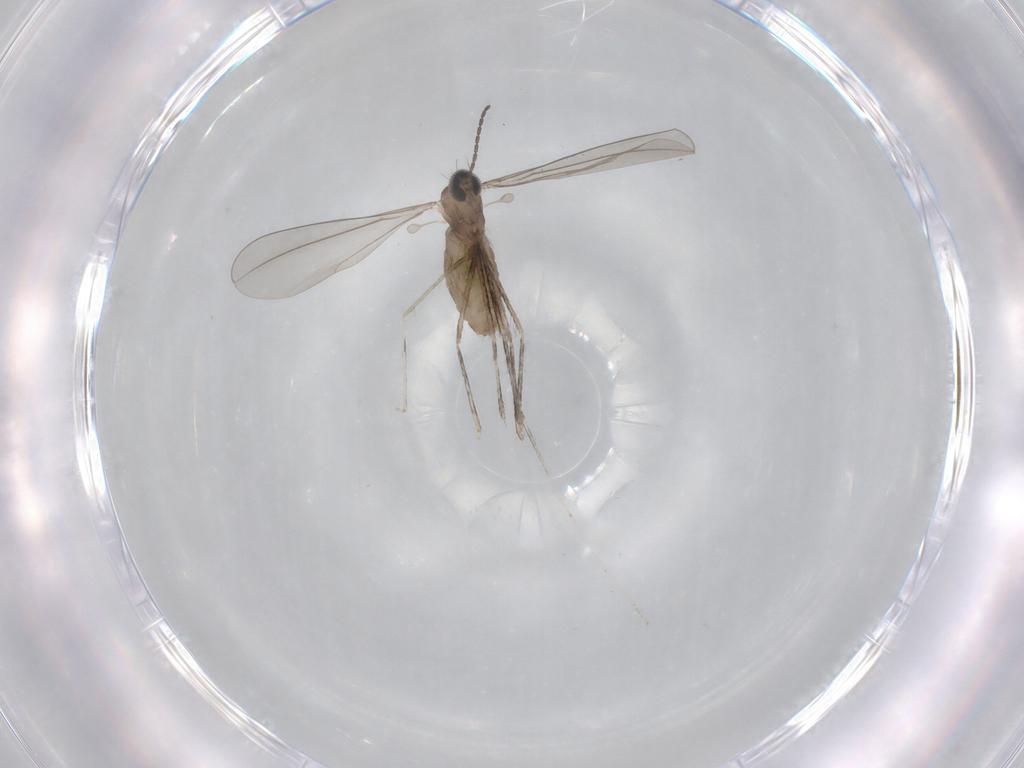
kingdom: Animalia
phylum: Arthropoda
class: Insecta
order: Diptera
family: Cecidomyiidae
